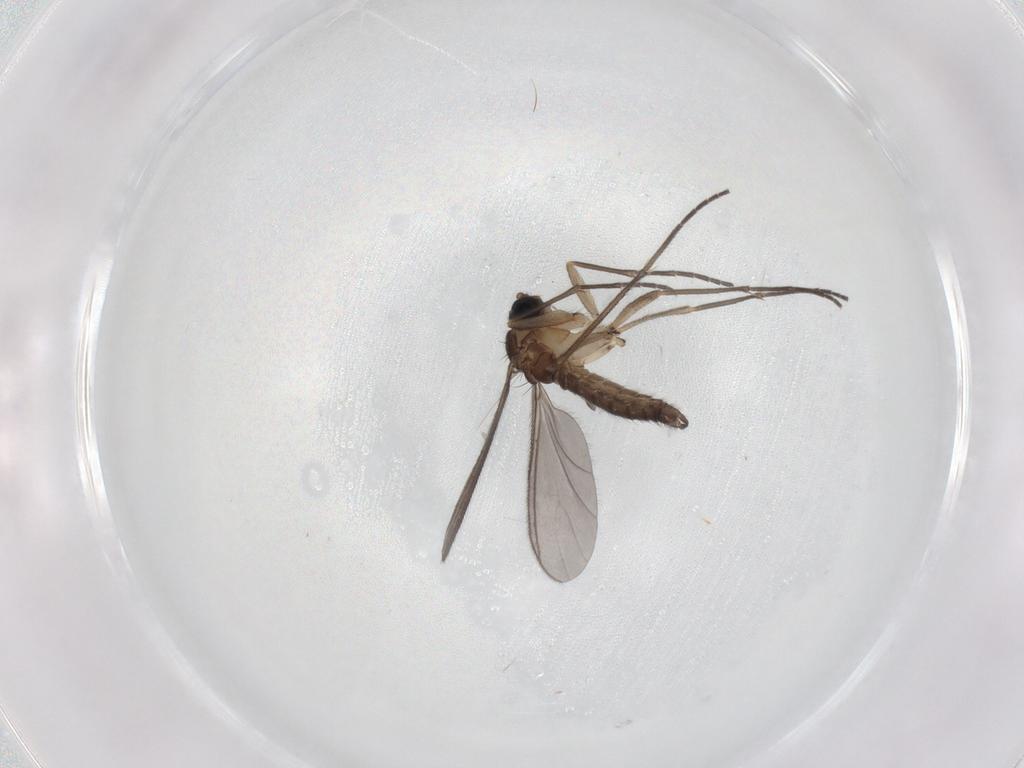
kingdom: Animalia
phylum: Arthropoda
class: Insecta
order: Diptera
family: Sciaridae
